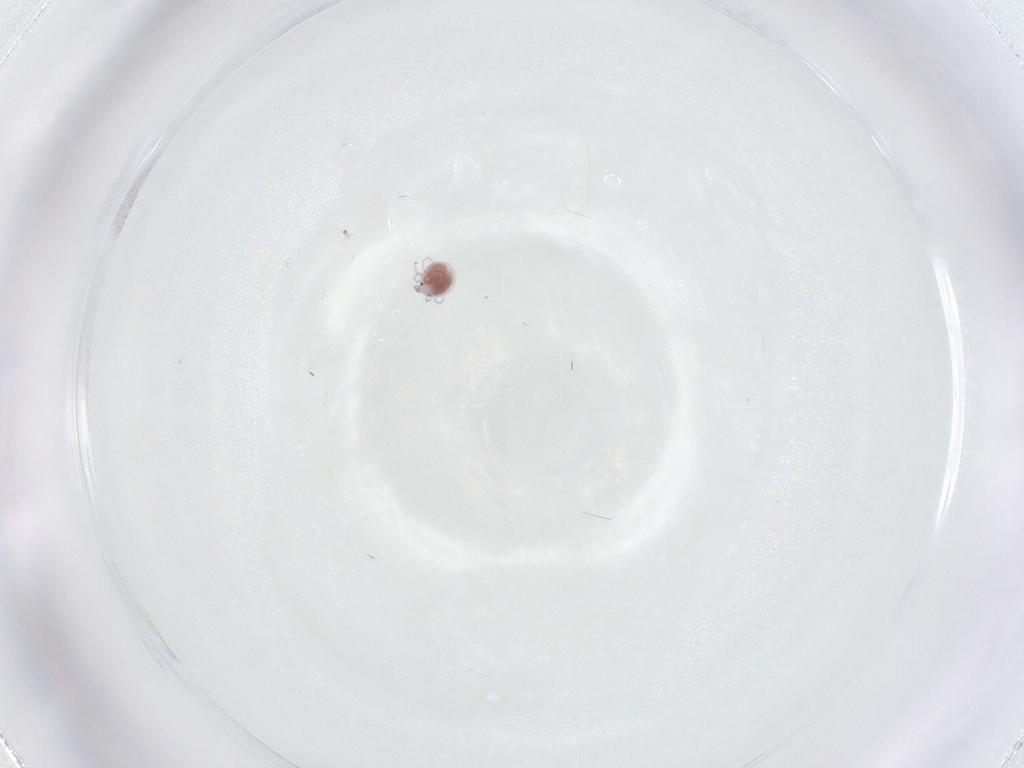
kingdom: Animalia
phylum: Arthropoda
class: Arachnida
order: Trombidiformes
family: Pionidae
